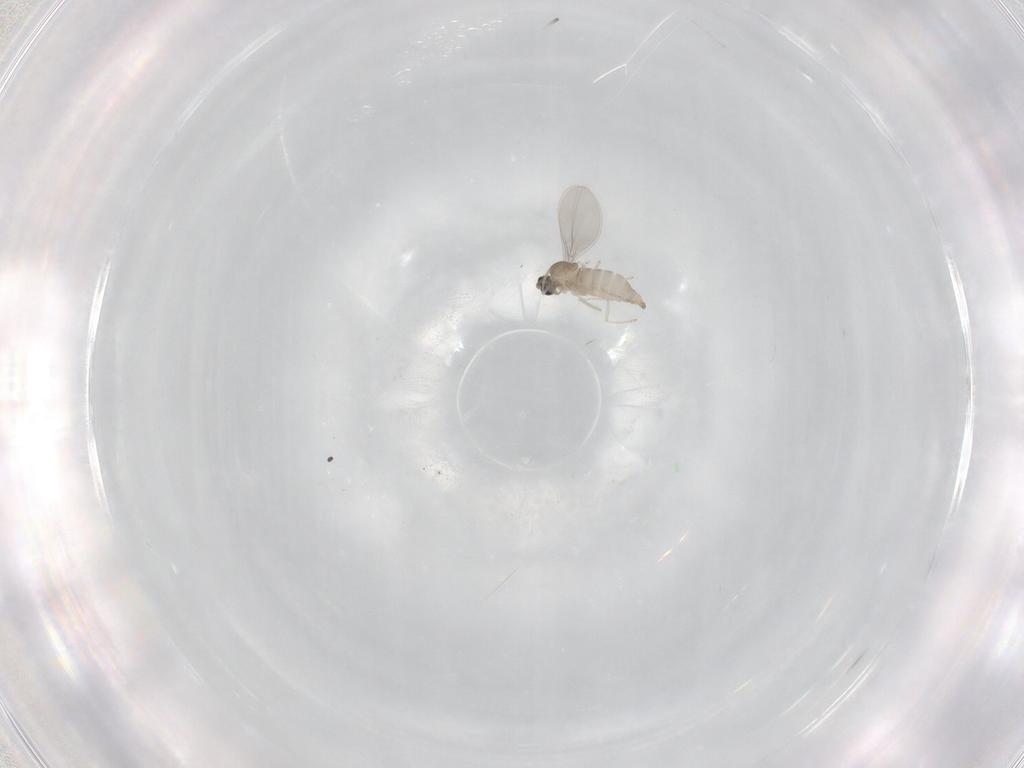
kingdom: Animalia
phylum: Arthropoda
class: Insecta
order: Diptera
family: Cecidomyiidae
